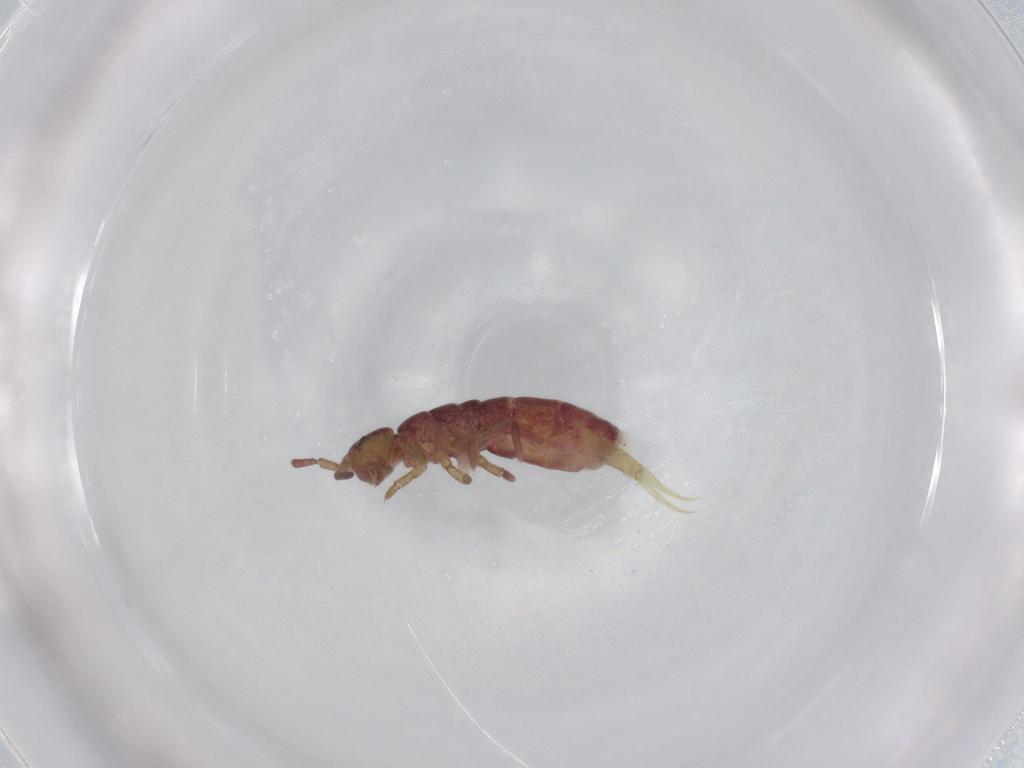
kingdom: Animalia
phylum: Arthropoda
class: Collembola
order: Entomobryomorpha
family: Isotomidae
